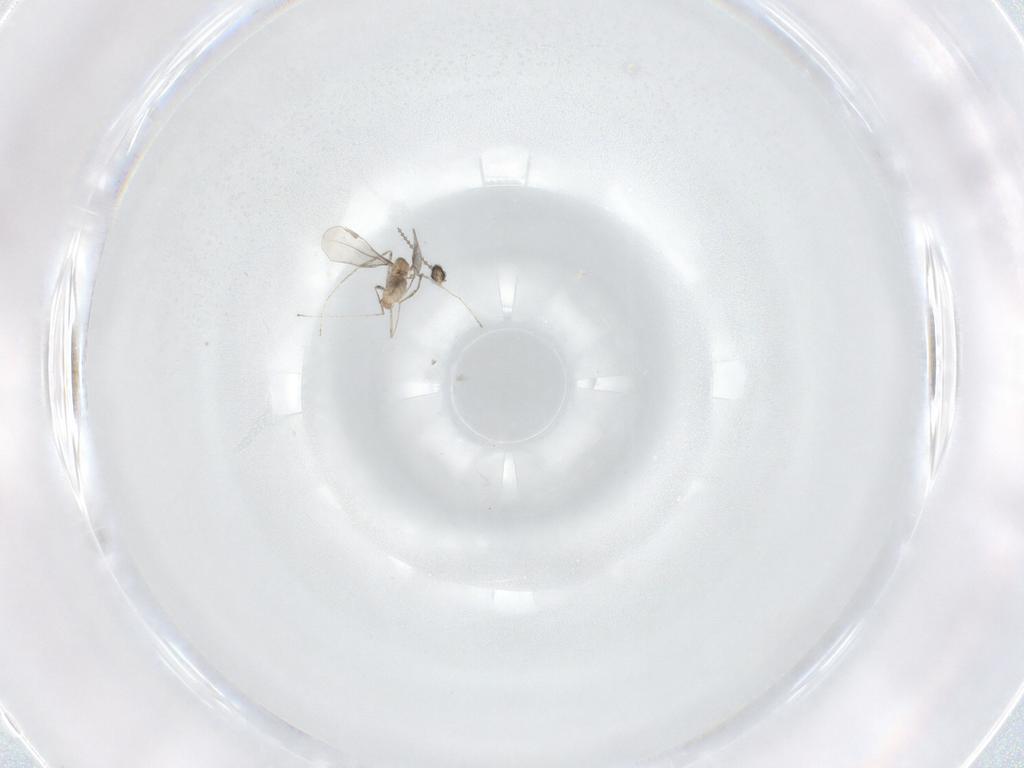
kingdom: Animalia
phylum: Arthropoda
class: Insecta
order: Diptera
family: Cecidomyiidae
